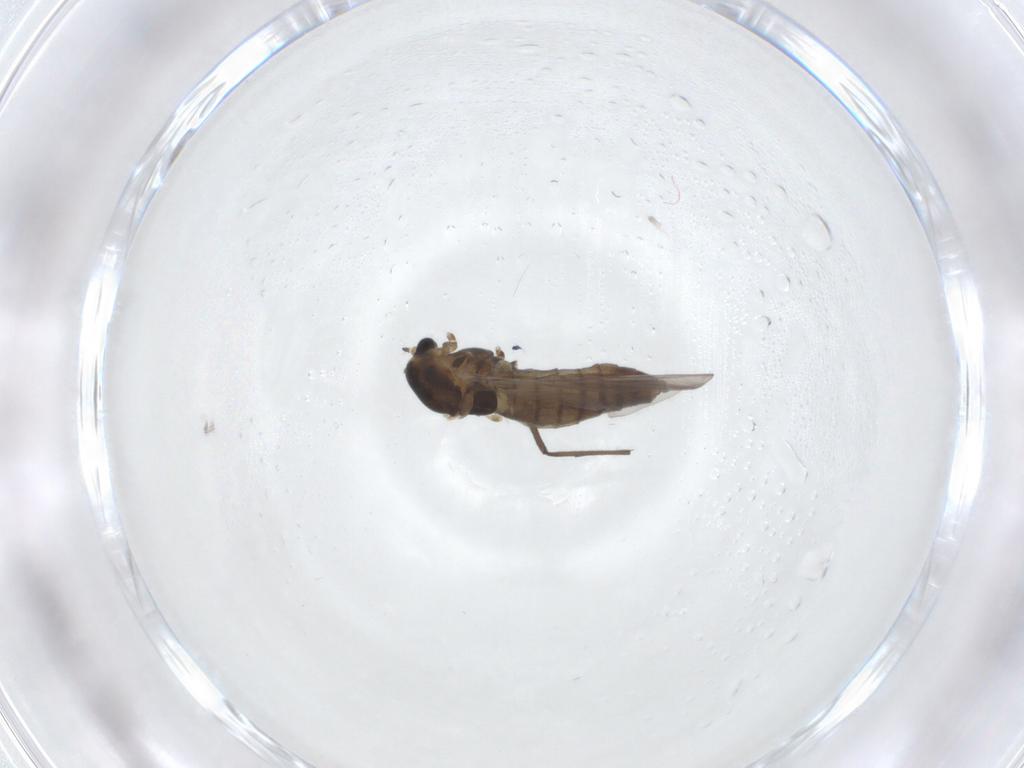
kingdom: Animalia
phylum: Arthropoda
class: Insecta
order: Diptera
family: Chironomidae
